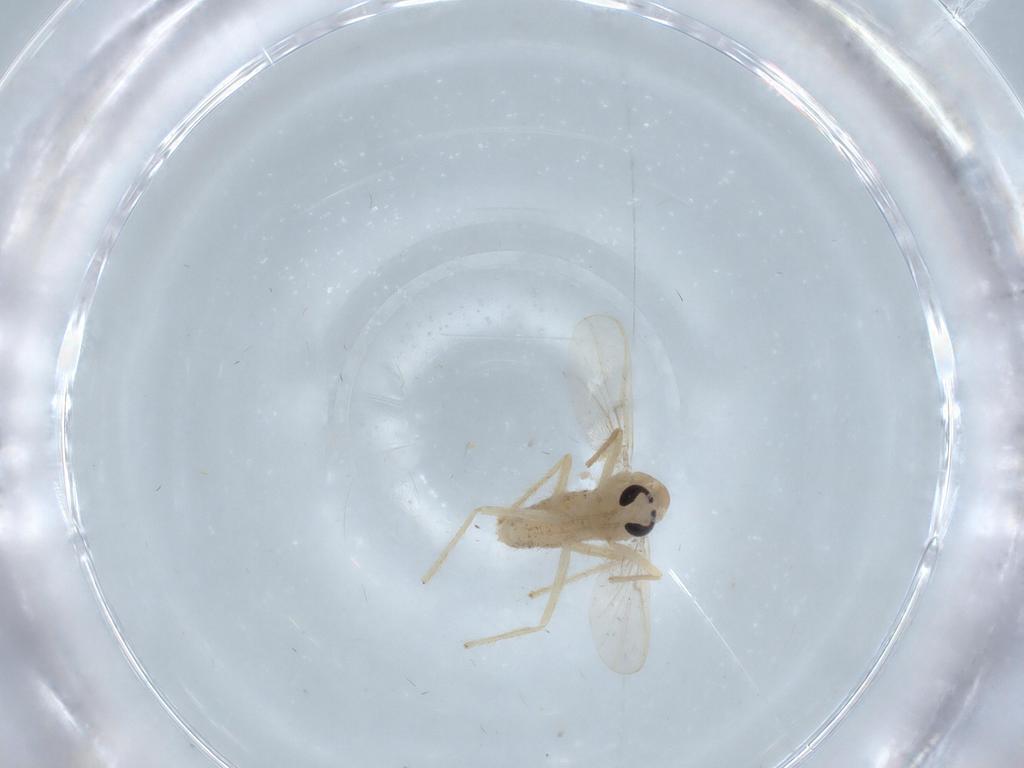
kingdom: Animalia
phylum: Arthropoda
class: Insecta
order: Diptera
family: Chironomidae
